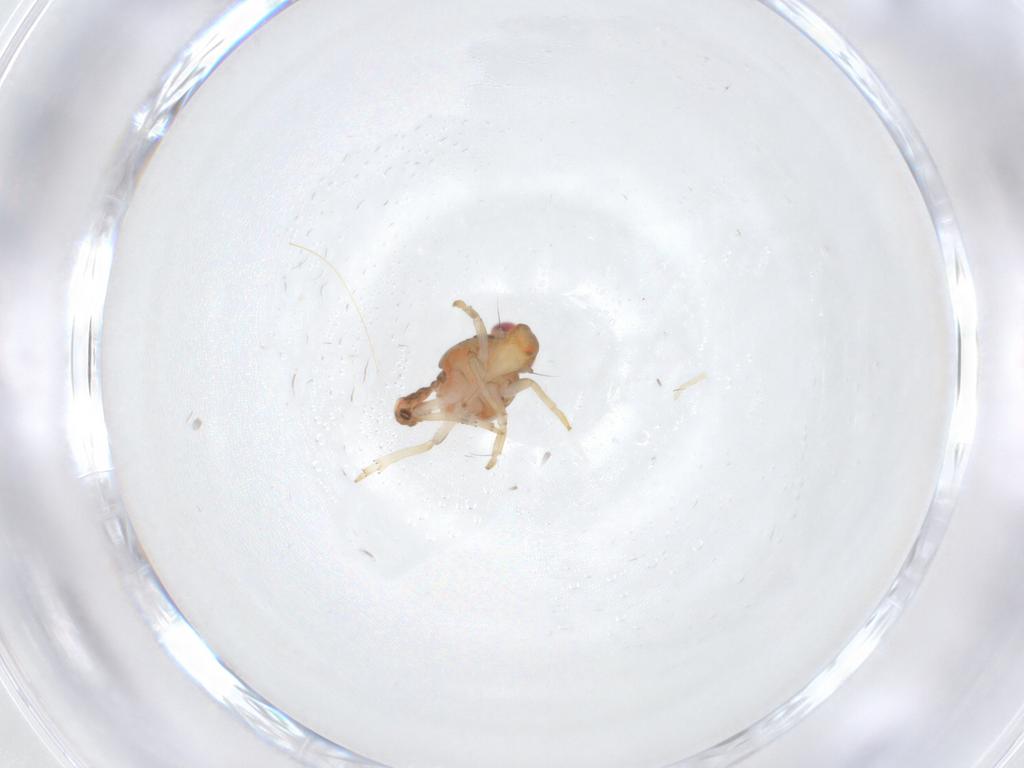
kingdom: Animalia
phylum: Arthropoda
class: Insecta
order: Hemiptera
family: Issidae
